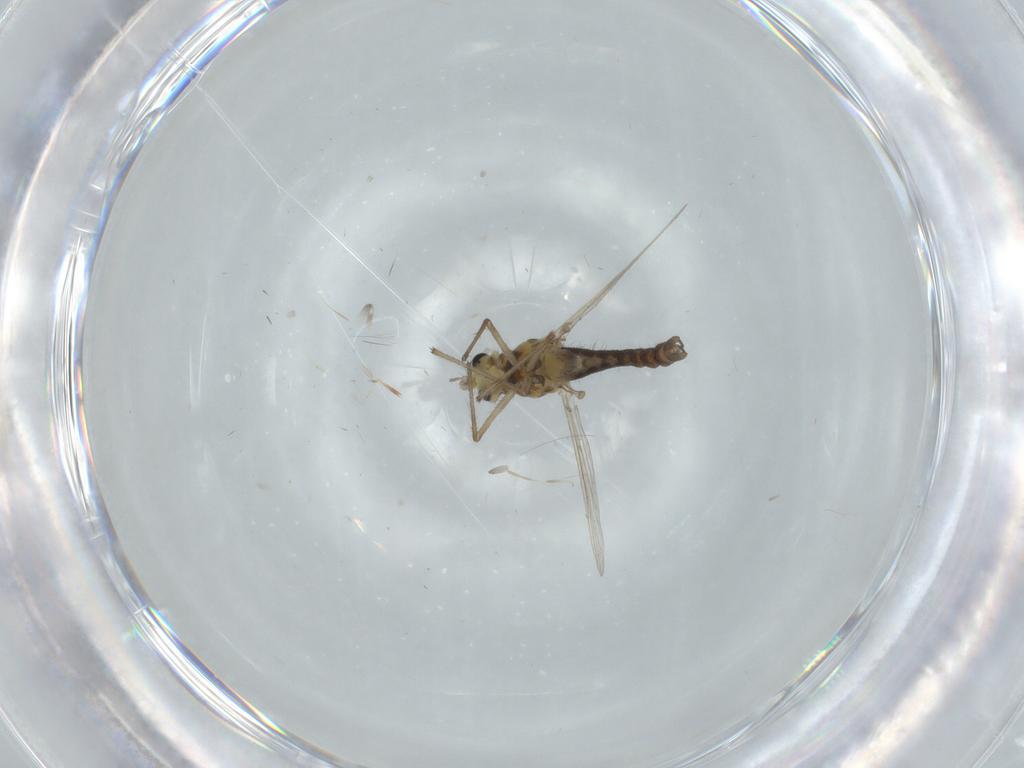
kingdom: Animalia
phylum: Arthropoda
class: Insecta
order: Diptera
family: Chironomidae
